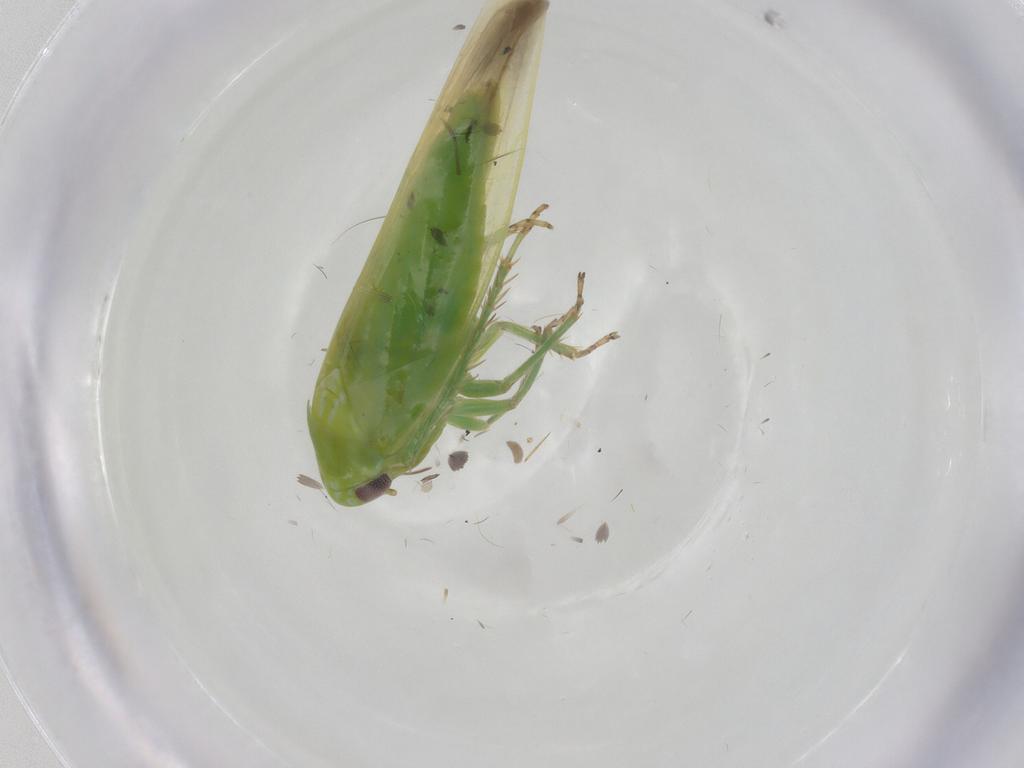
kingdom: Animalia
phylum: Arthropoda
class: Insecta
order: Hemiptera
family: Cicadellidae
